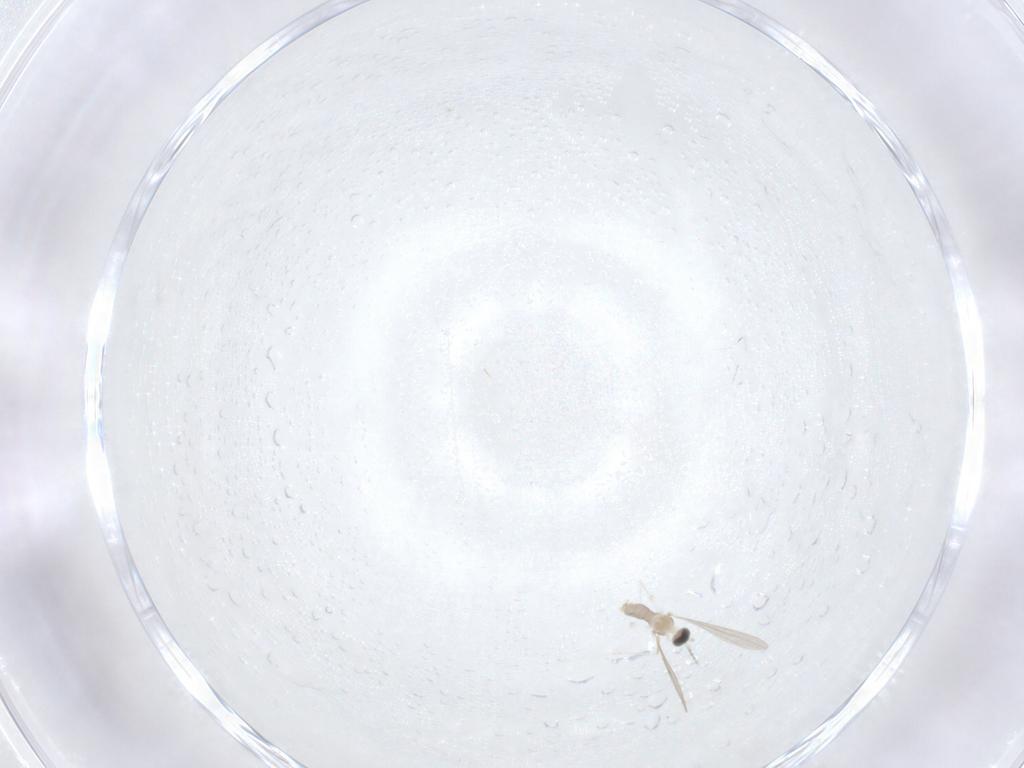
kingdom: Animalia
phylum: Arthropoda
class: Insecta
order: Diptera
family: Cecidomyiidae
